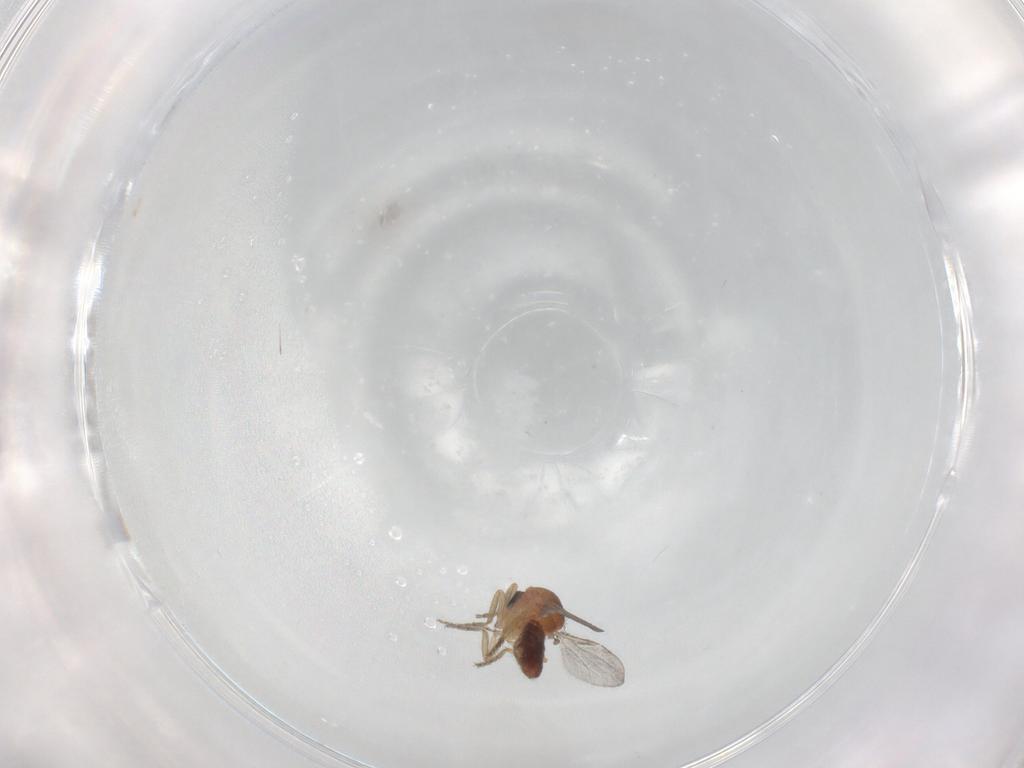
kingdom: Animalia
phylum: Arthropoda
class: Insecta
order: Diptera
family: Ceratopogonidae
